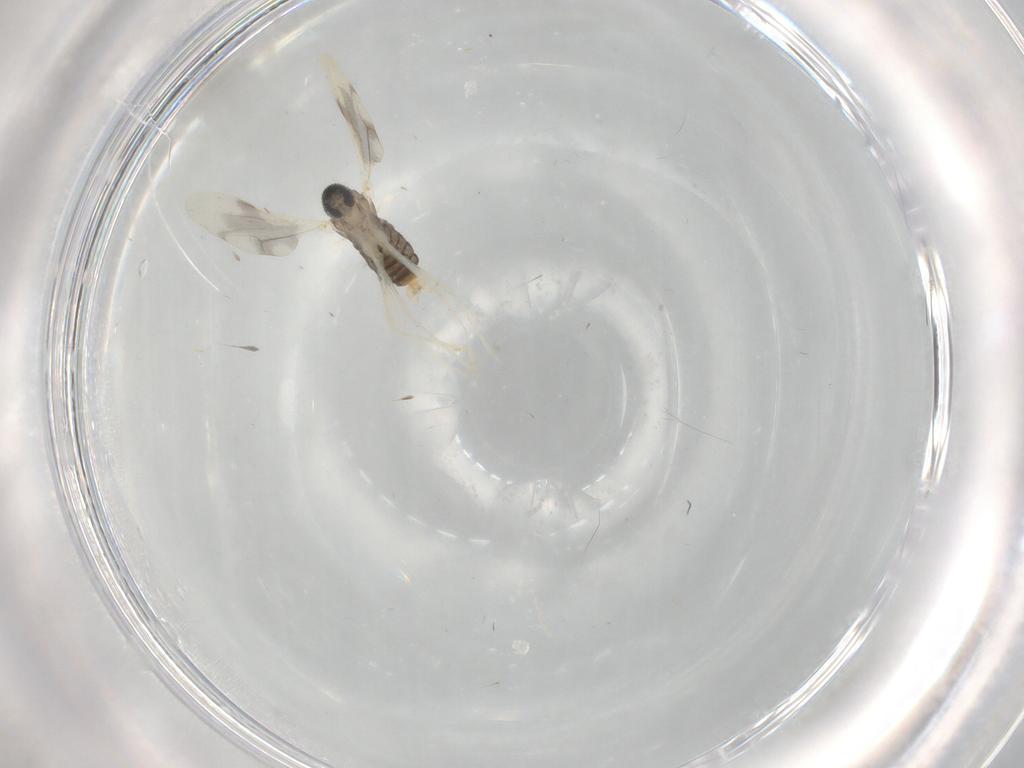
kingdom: Animalia
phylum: Arthropoda
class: Insecta
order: Diptera
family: Cecidomyiidae
